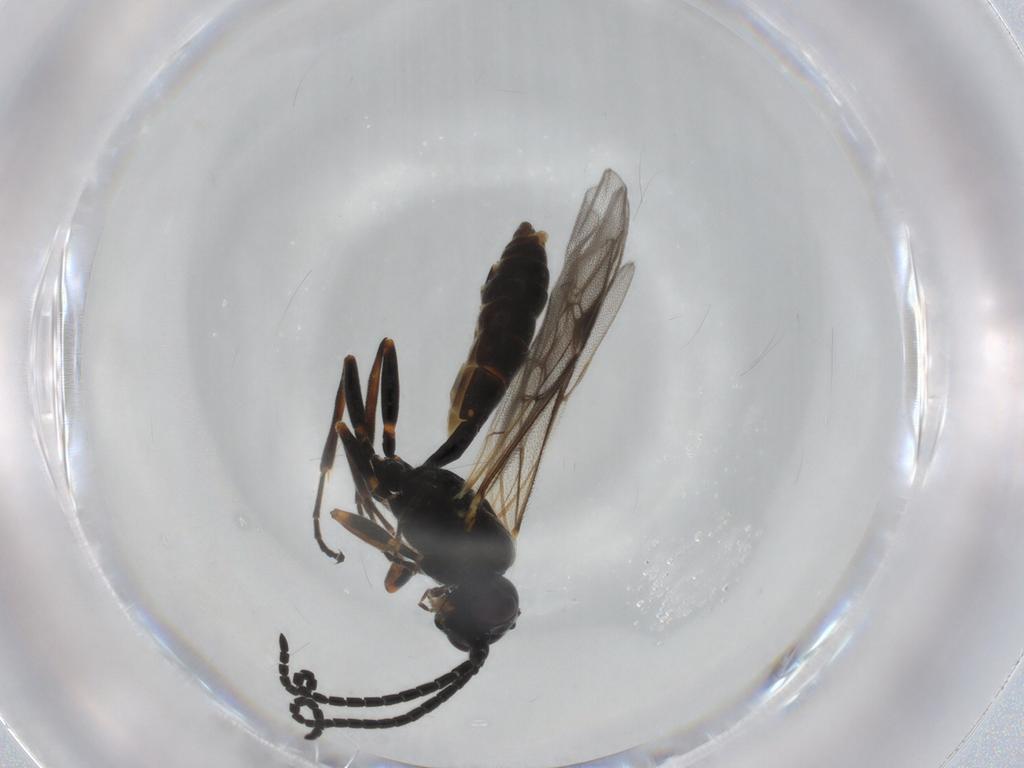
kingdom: Animalia
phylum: Arthropoda
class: Insecta
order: Hymenoptera
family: Ichneumonidae
